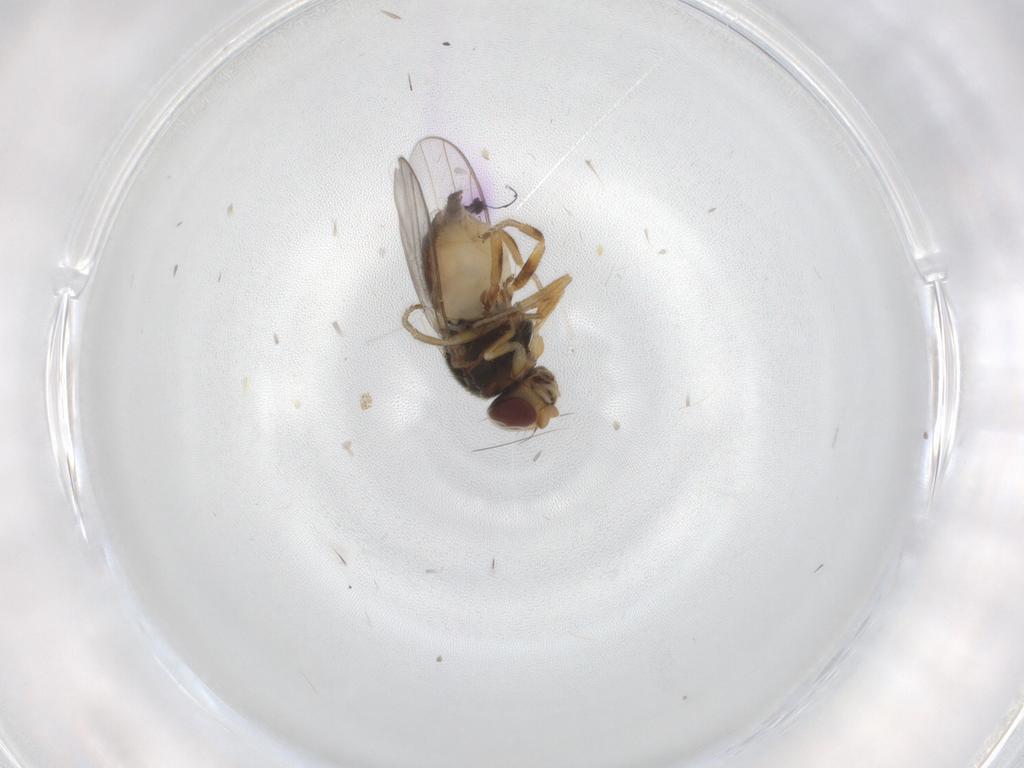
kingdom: Animalia
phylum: Arthropoda
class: Insecta
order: Diptera
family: Chloropidae
